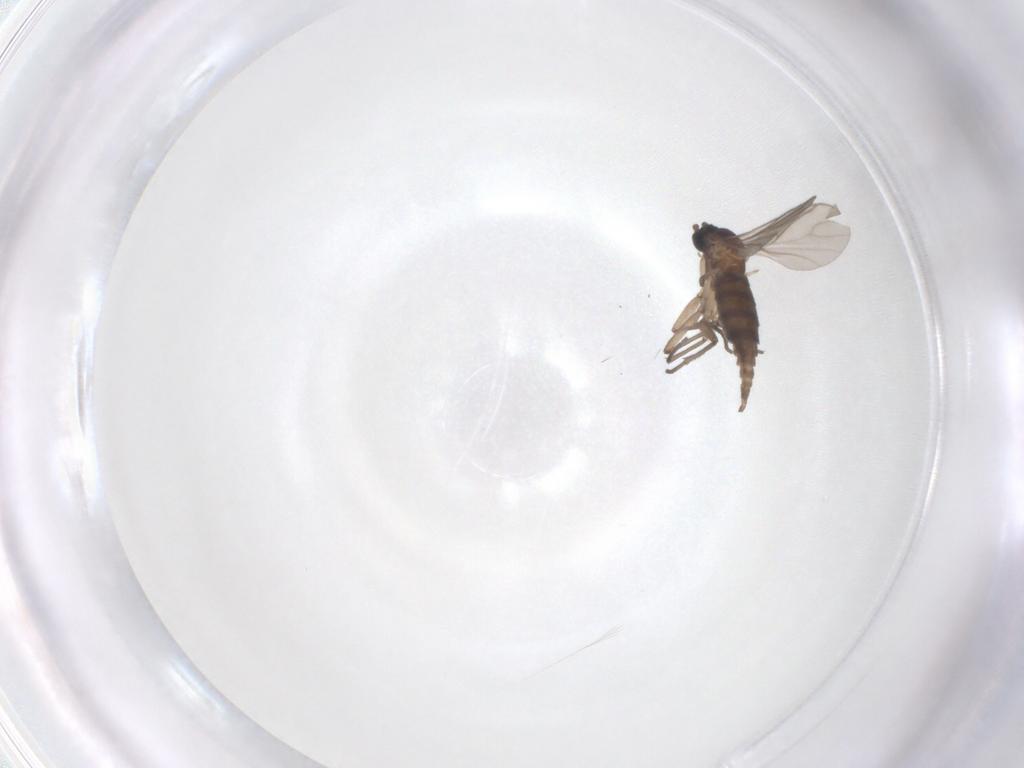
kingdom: Animalia
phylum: Arthropoda
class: Insecta
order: Diptera
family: Sciaridae
